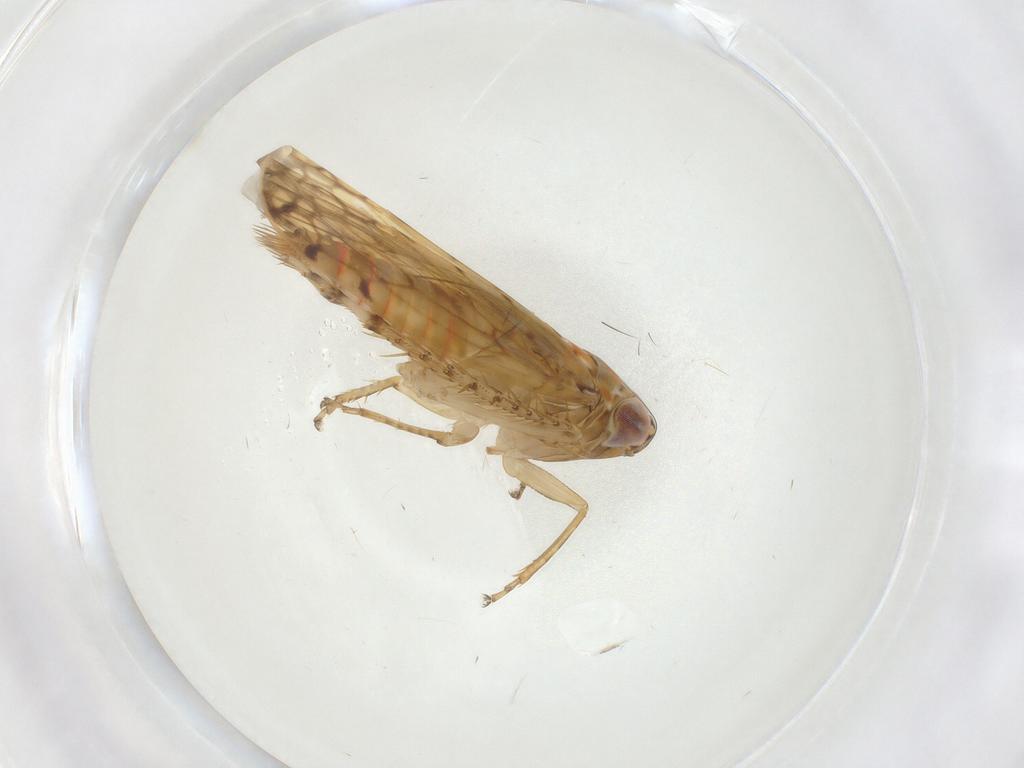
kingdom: Animalia
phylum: Arthropoda
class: Insecta
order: Hemiptera
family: Cicadellidae
